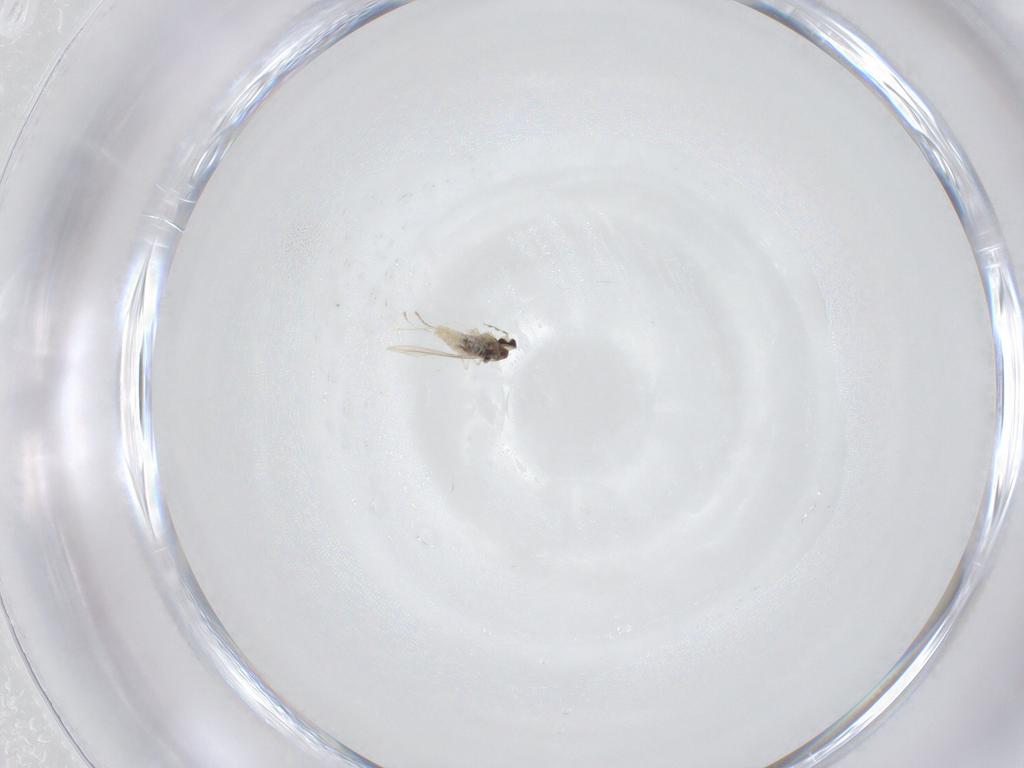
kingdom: Animalia
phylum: Arthropoda
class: Insecta
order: Diptera
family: Cecidomyiidae
